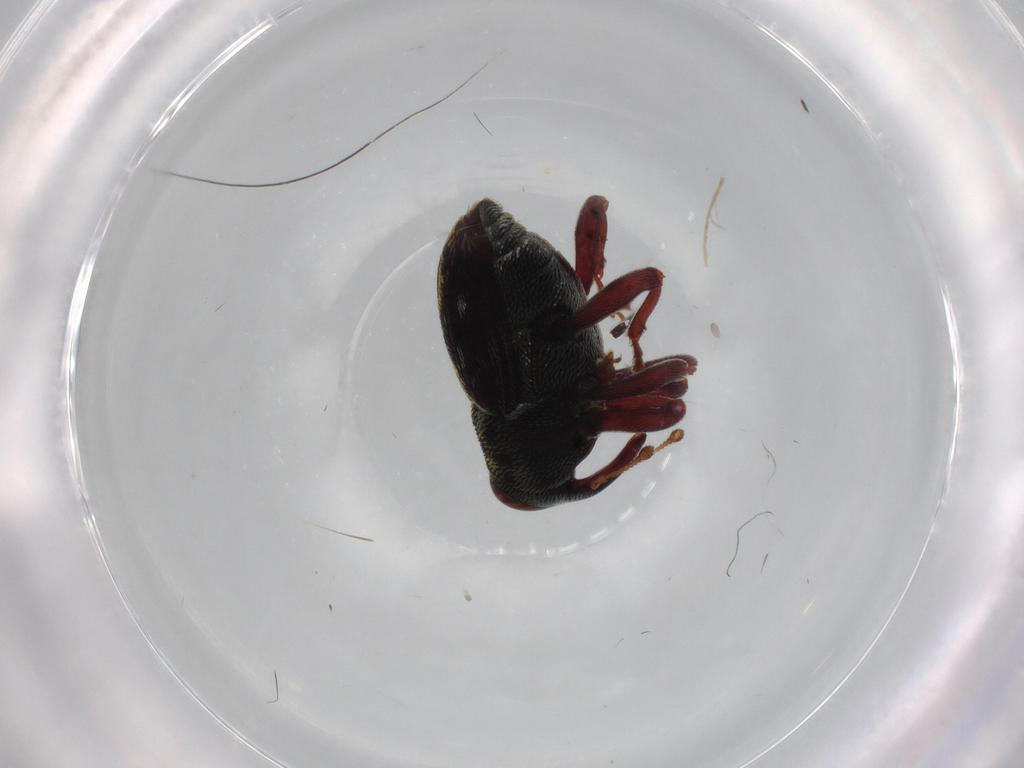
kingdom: Animalia
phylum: Arthropoda
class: Insecta
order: Coleoptera
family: Curculionidae
